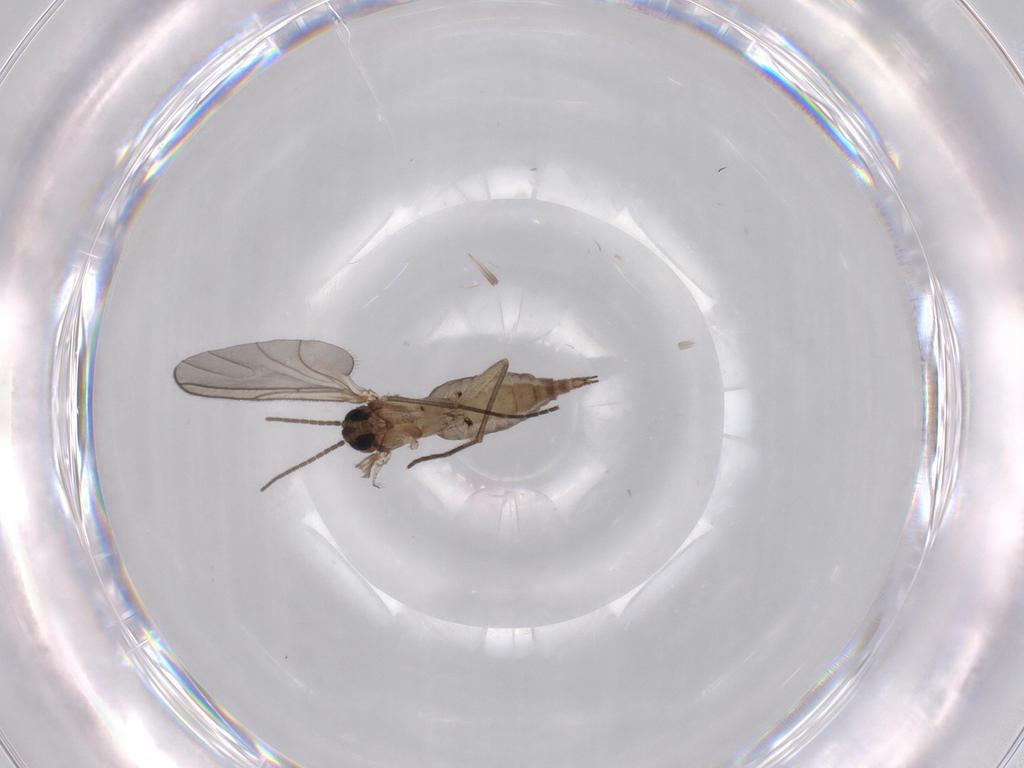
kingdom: Animalia
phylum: Arthropoda
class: Insecta
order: Diptera
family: Sciaridae
